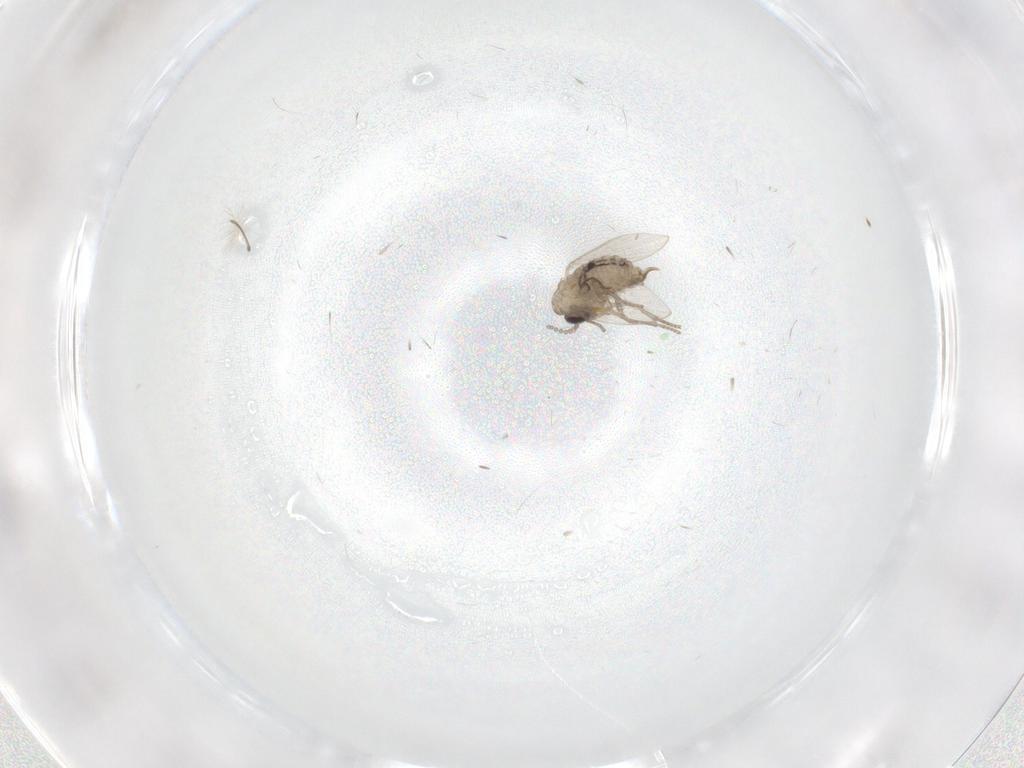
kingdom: Animalia
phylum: Arthropoda
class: Insecta
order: Diptera
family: Psychodidae
